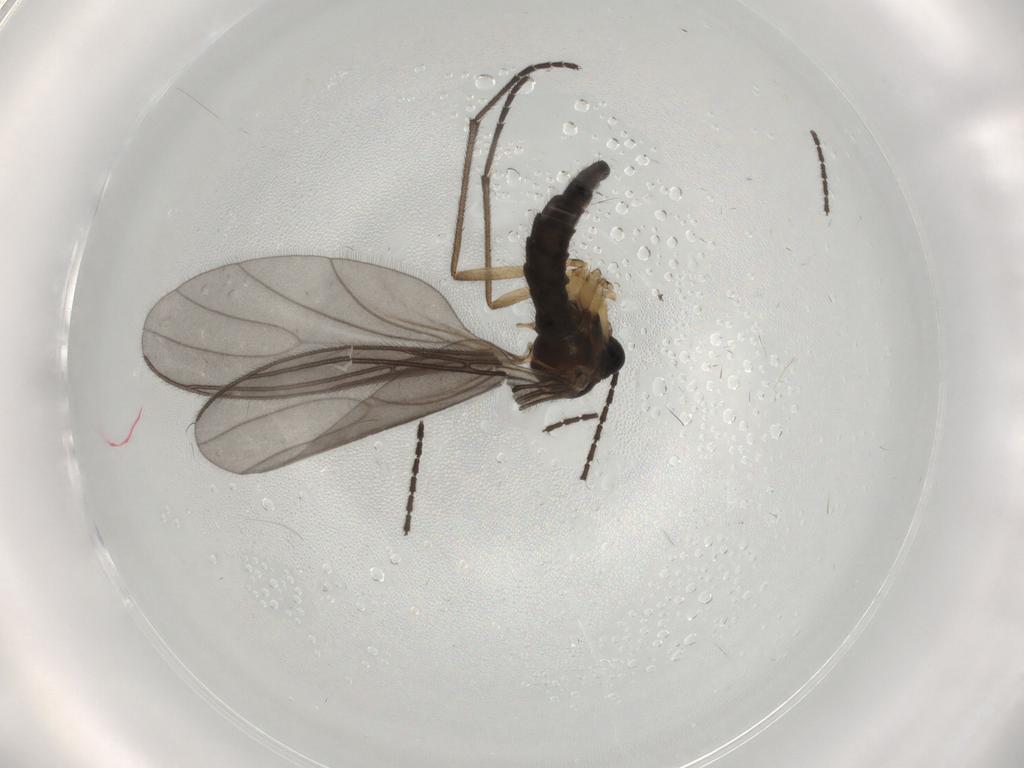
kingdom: Animalia
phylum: Arthropoda
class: Insecta
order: Diptera
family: Sciaridae
